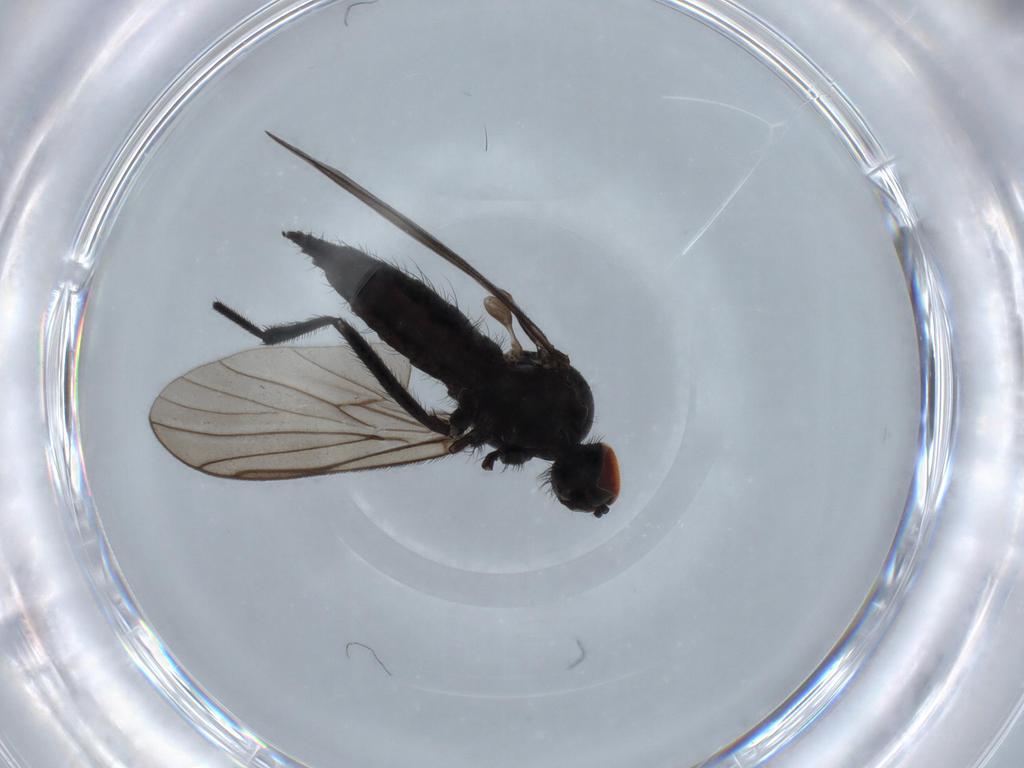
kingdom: Animalia
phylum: Arthropoda
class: Insecta
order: Diptera
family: Hybotidae
